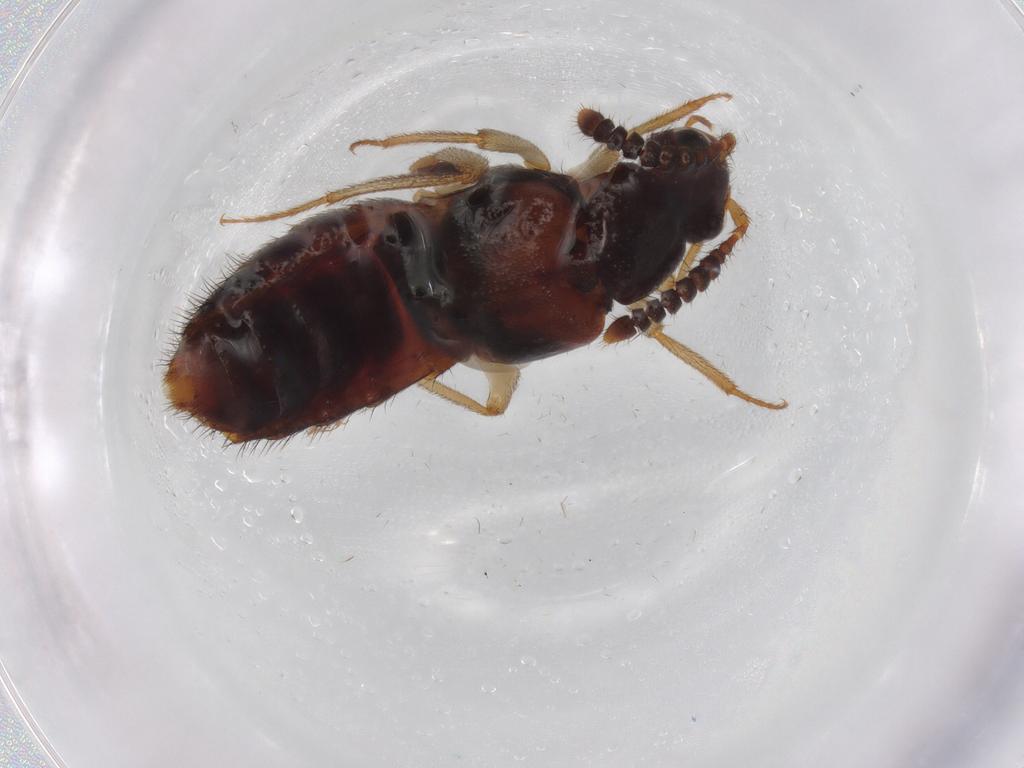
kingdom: Animalia
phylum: Arthropoda
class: Insecta
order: Coleoptera
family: Staphylinidae
